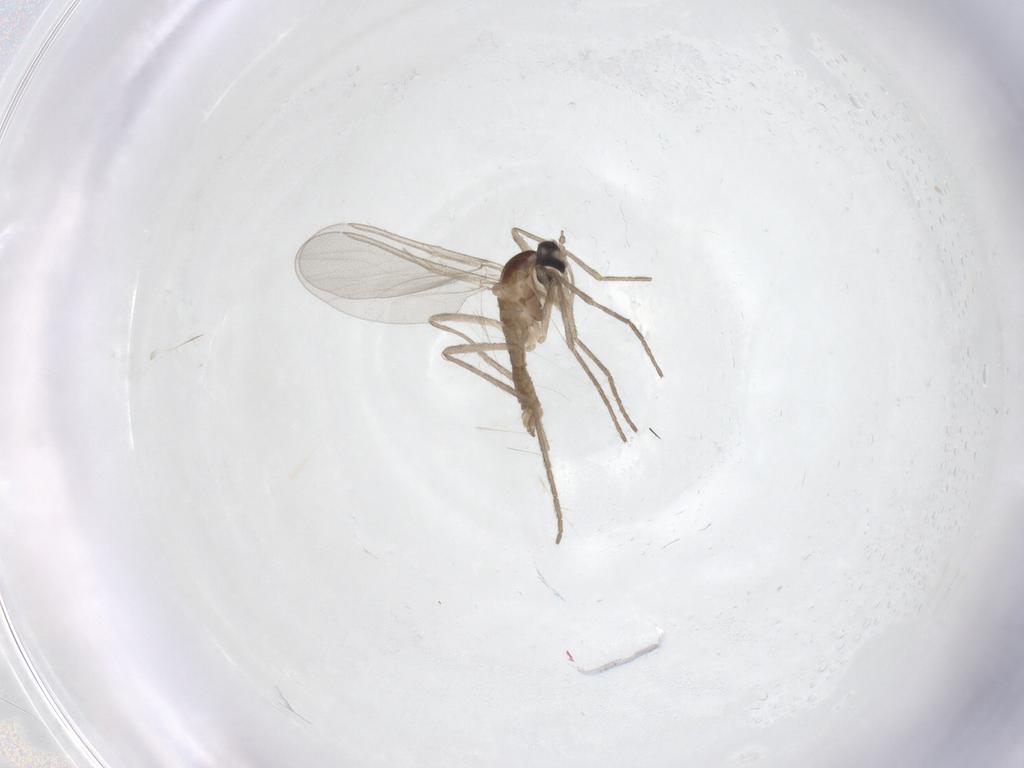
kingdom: Animalia
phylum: Arthropoda
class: Insecta
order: Diptera
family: Cecidomyiidae
